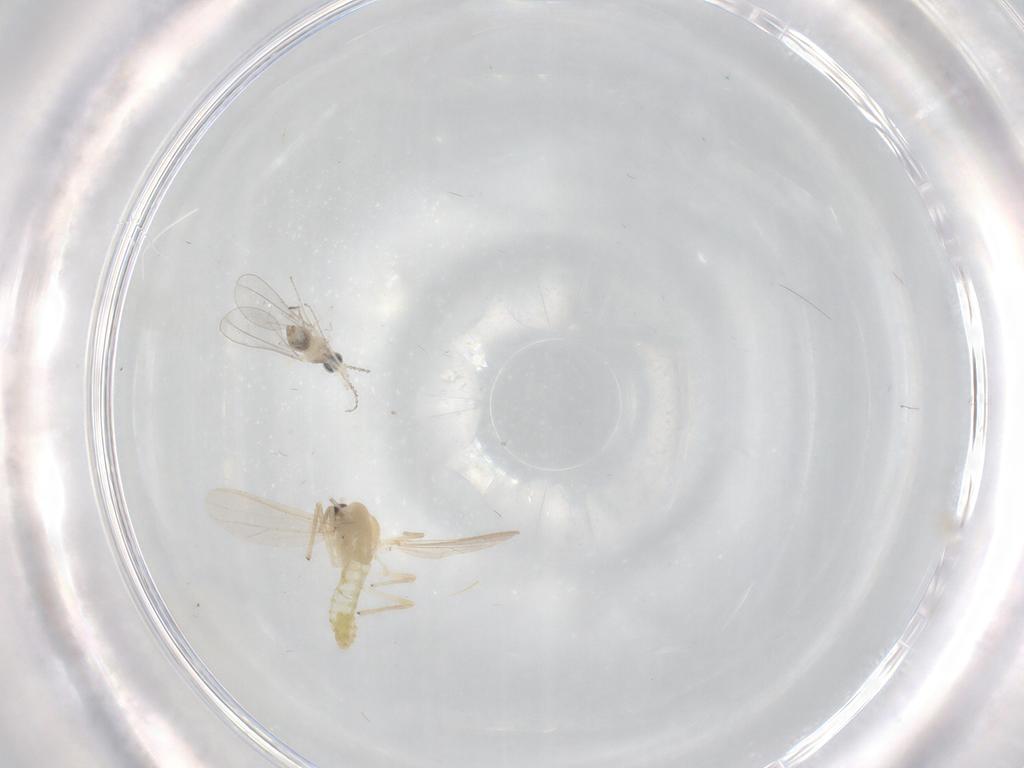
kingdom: Animalia
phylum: Arthropoda
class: Insecta
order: Diptera
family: Chironomidae
